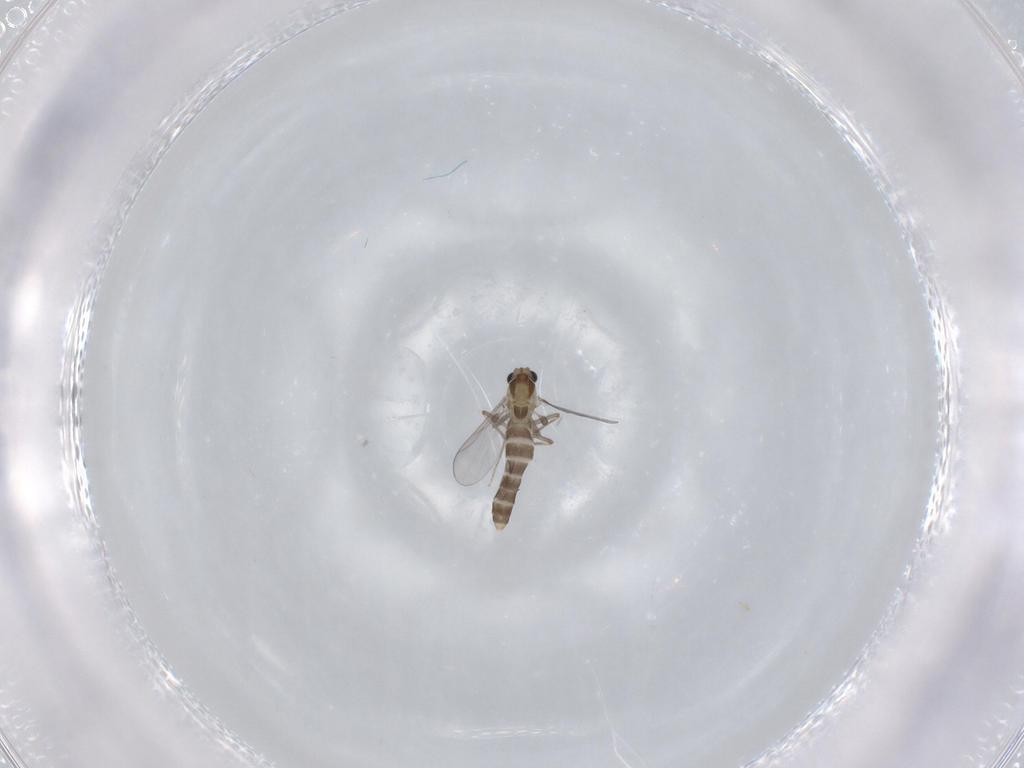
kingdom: Animalia
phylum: Arthropoda
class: Insecta
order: Diptera
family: Chironomidae
